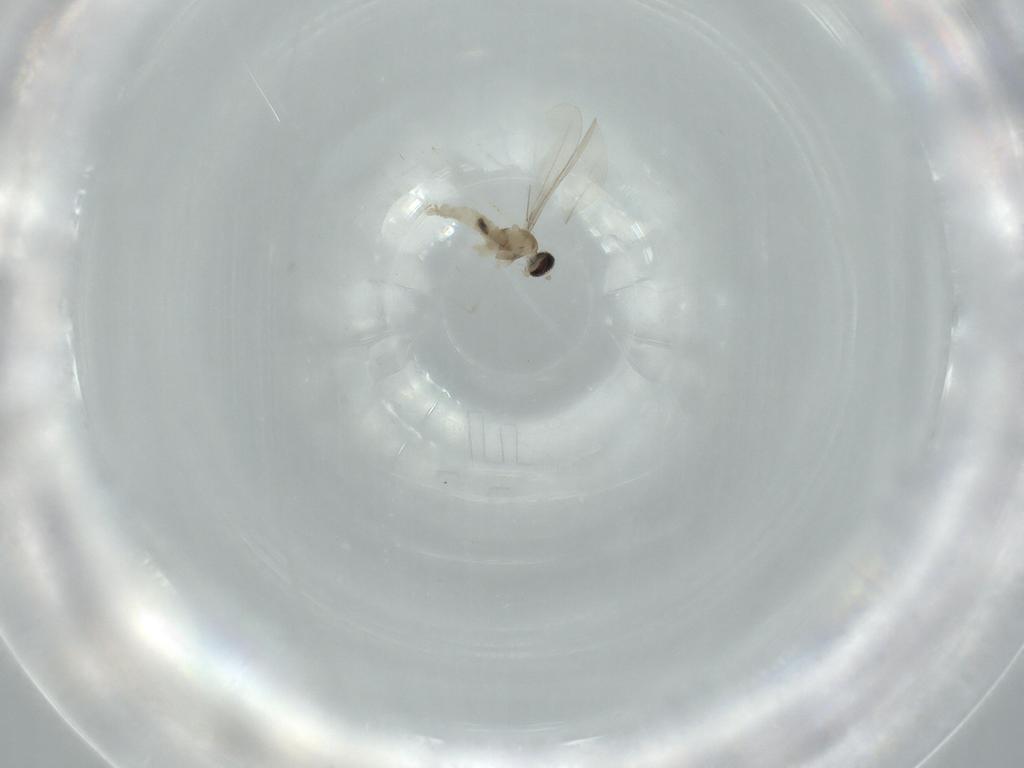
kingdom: Animalia
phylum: Arthropoda
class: Insecta
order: Diptera
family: Cecidomyiidae
